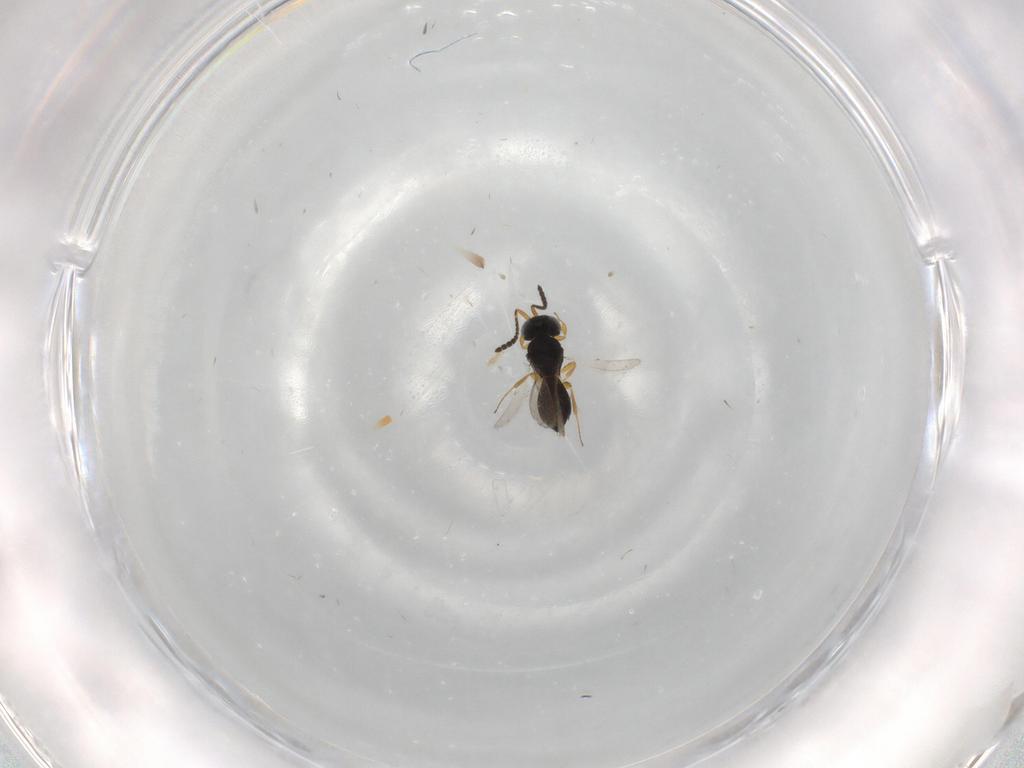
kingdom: Animalia
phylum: Arthropoda
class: Insecta
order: Hymenoptera
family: Scelionidae
